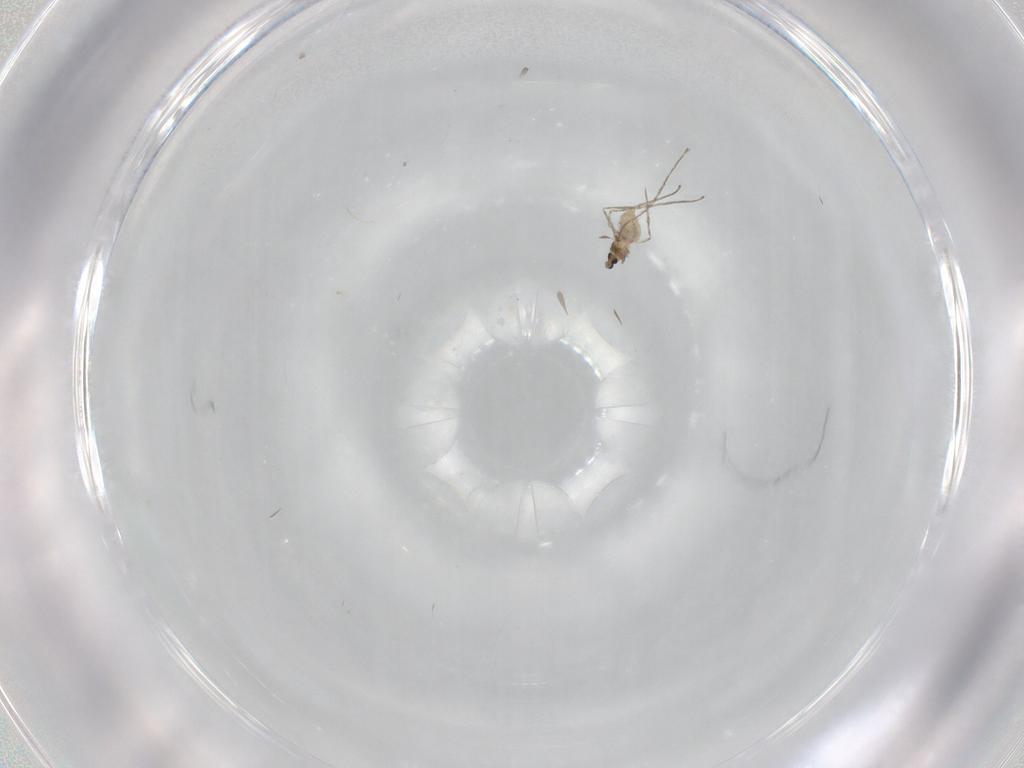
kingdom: Animalia
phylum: Arthropoda
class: Insecta
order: Diptera
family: Cecidomyiidae
